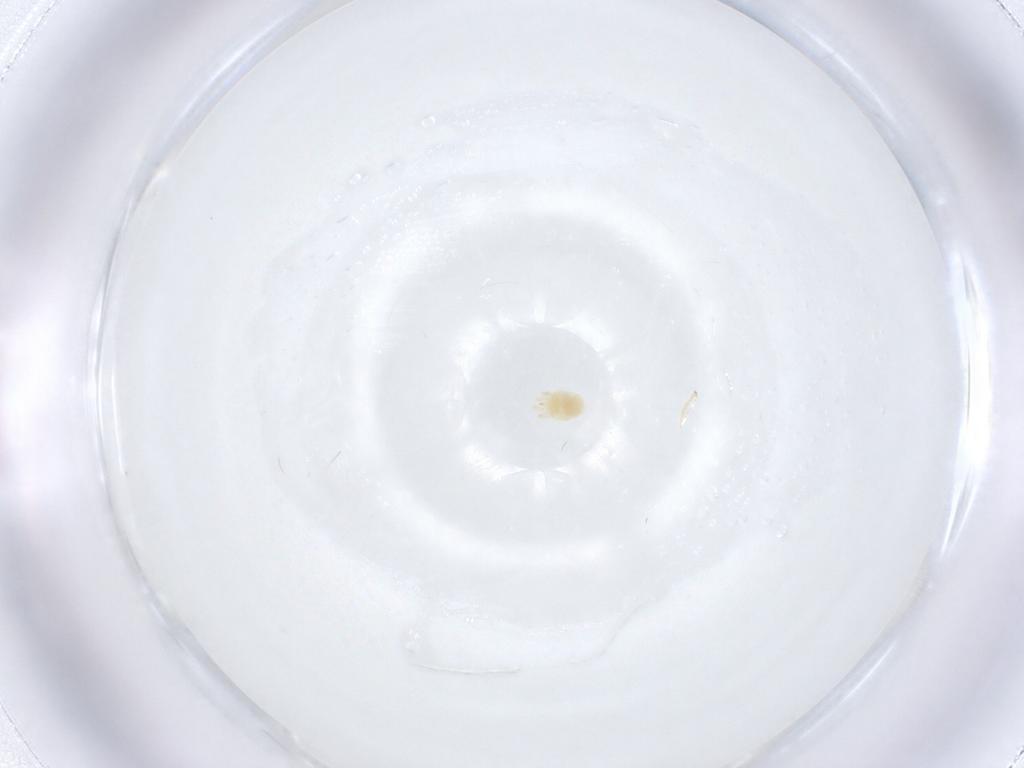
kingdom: Animalia
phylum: Arthropoda
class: Arachnida
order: Trombidiformes
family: Tetranychidae
